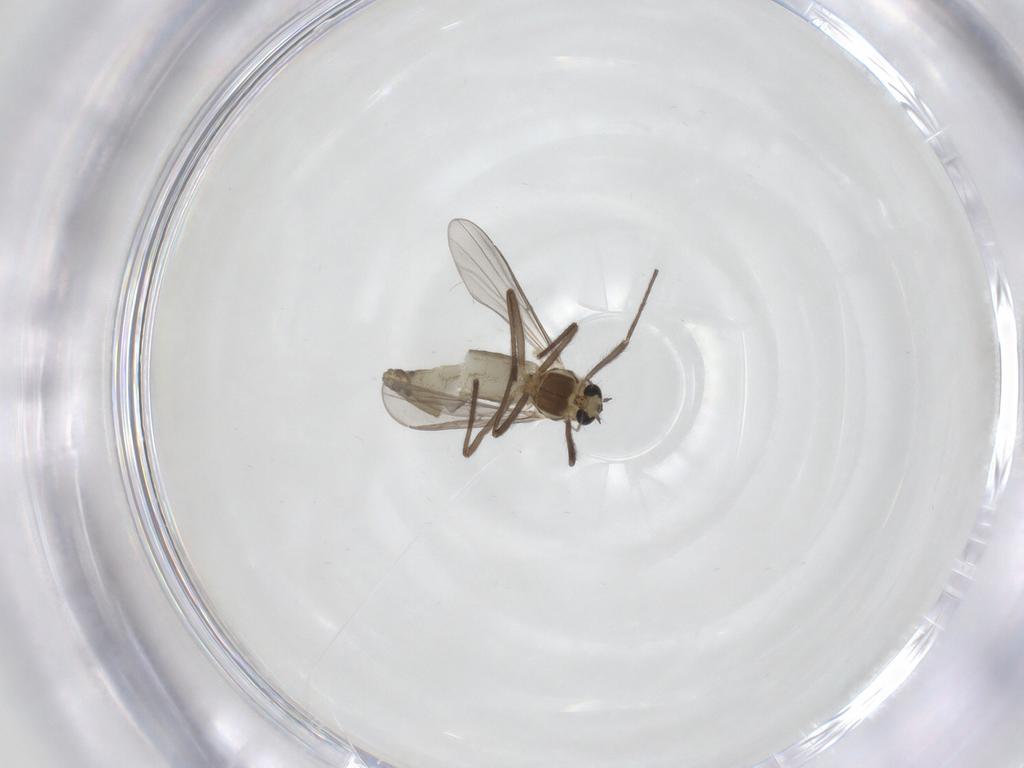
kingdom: Animalia
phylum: Arthropoda
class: Insecta
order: Diptera
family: Chironomidae
